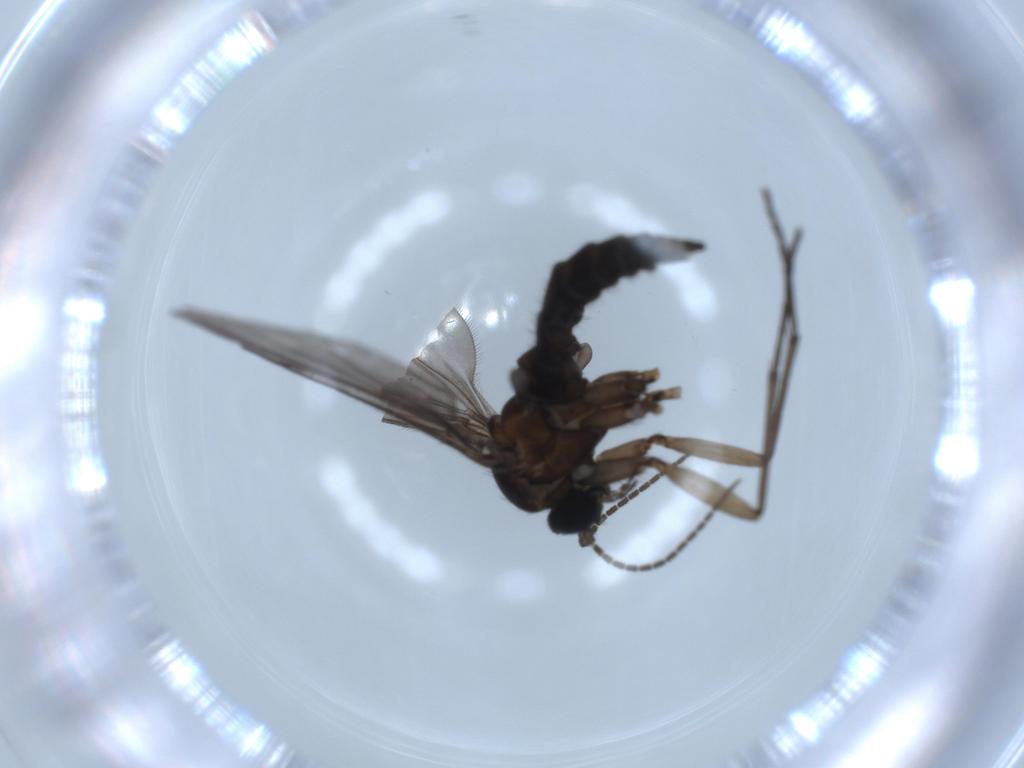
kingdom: Animalia
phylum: Arthropoda
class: Insecta
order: Diptera
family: Sciaridae
